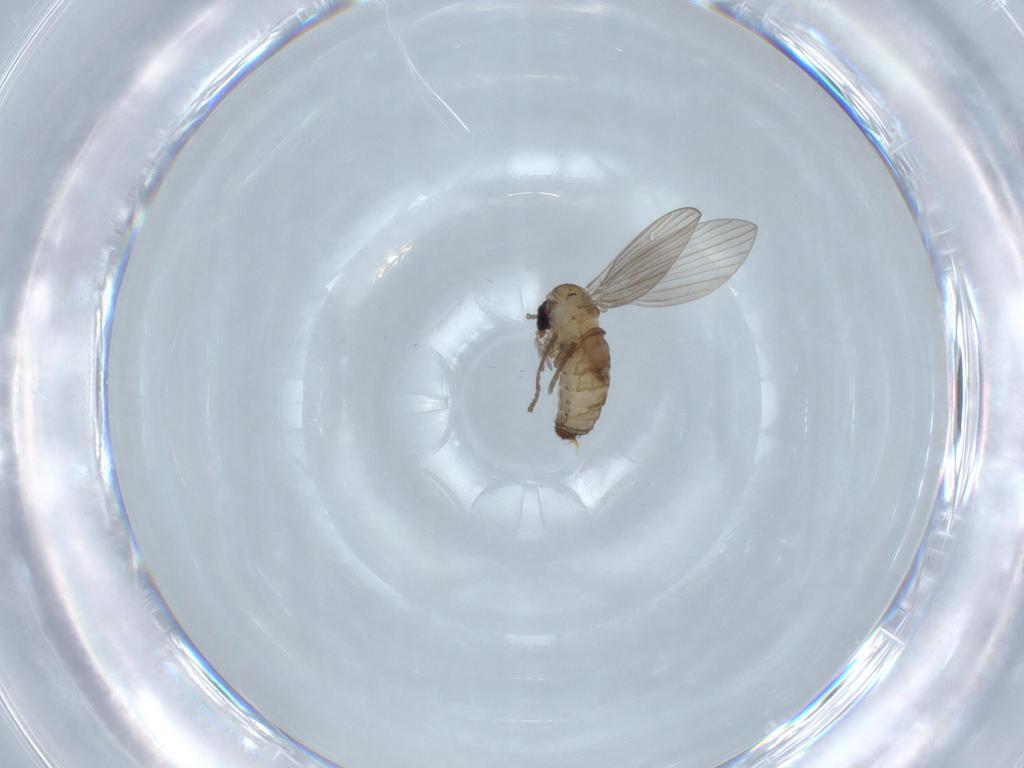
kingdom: Animalia
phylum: Arthropoda
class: Insecta
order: Diptera
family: Psychodidae
